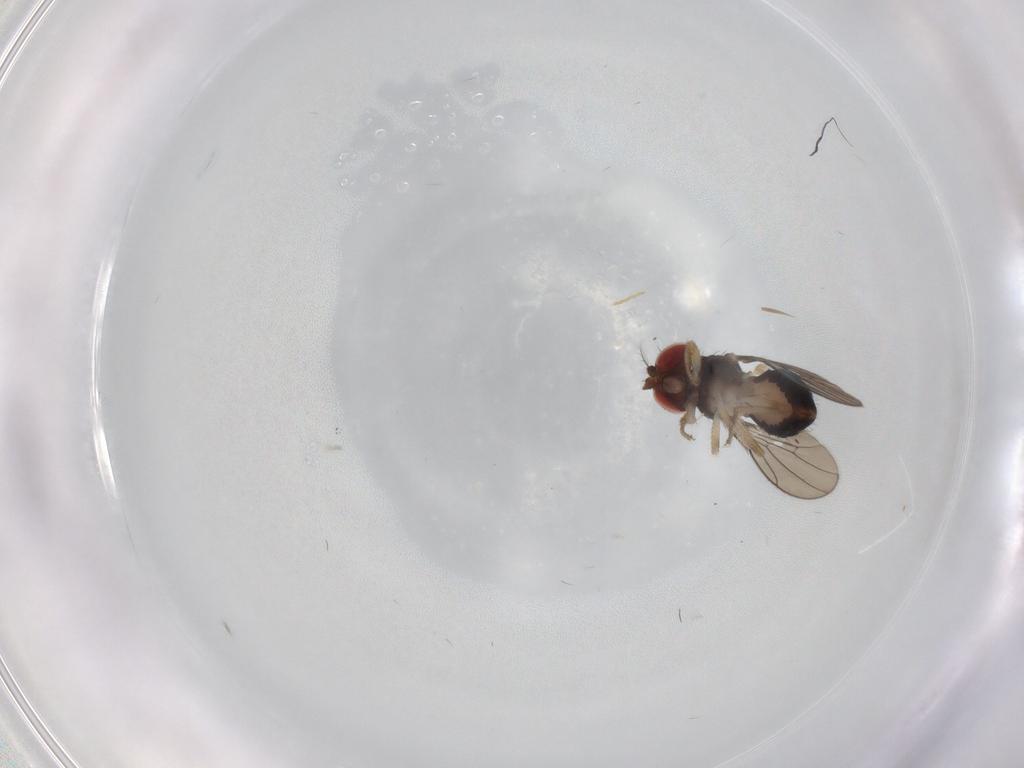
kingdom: Animalia
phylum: Arthropoda
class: Insecta
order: Diptera
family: Drosophilidae
